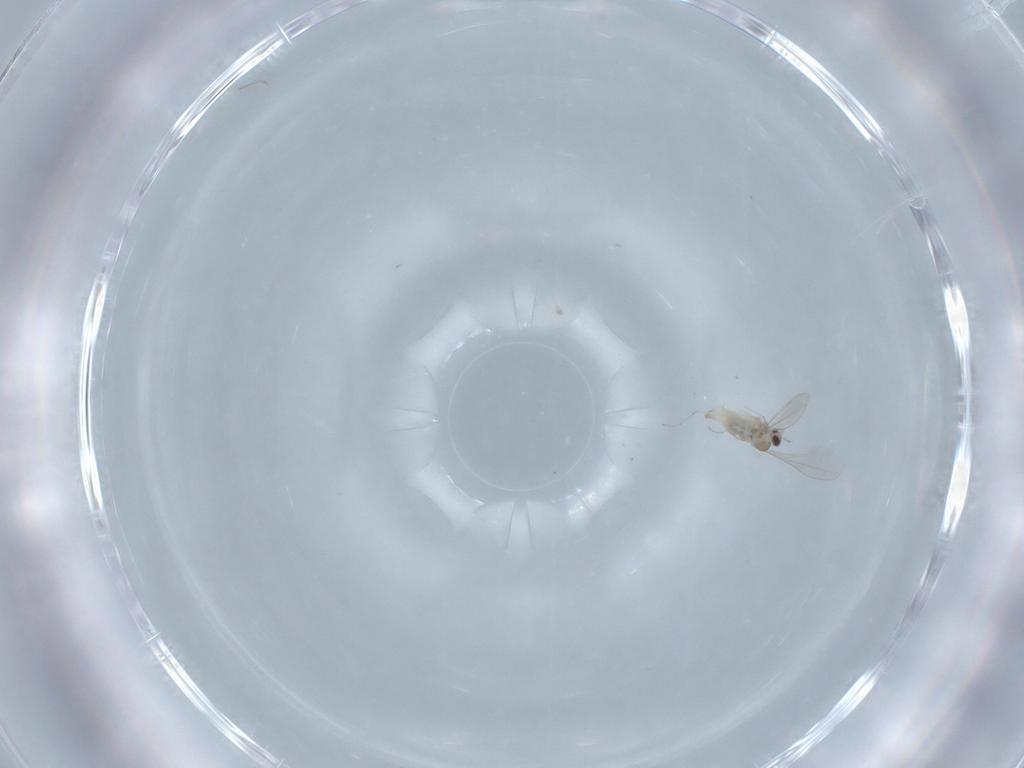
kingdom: Animalia
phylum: Arthropoda
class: Insecta
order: Diptera
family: Cecidomyiidae
